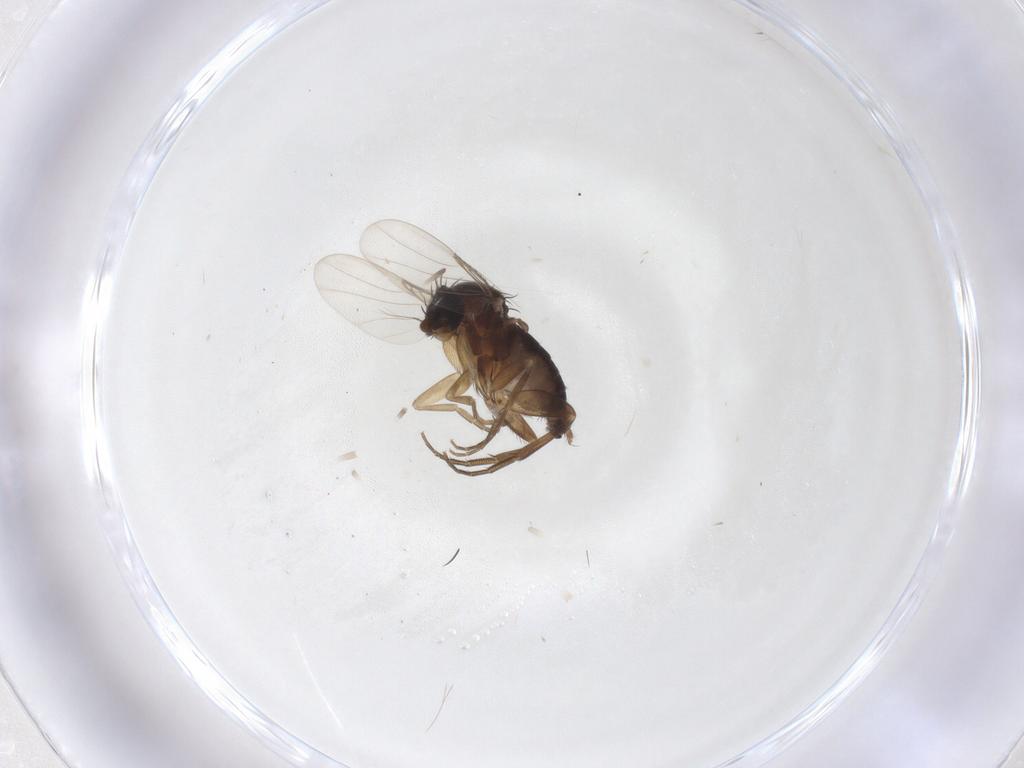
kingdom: Animalia
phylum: Arthropoda
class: Insecta
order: Diptera
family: Phoridae
